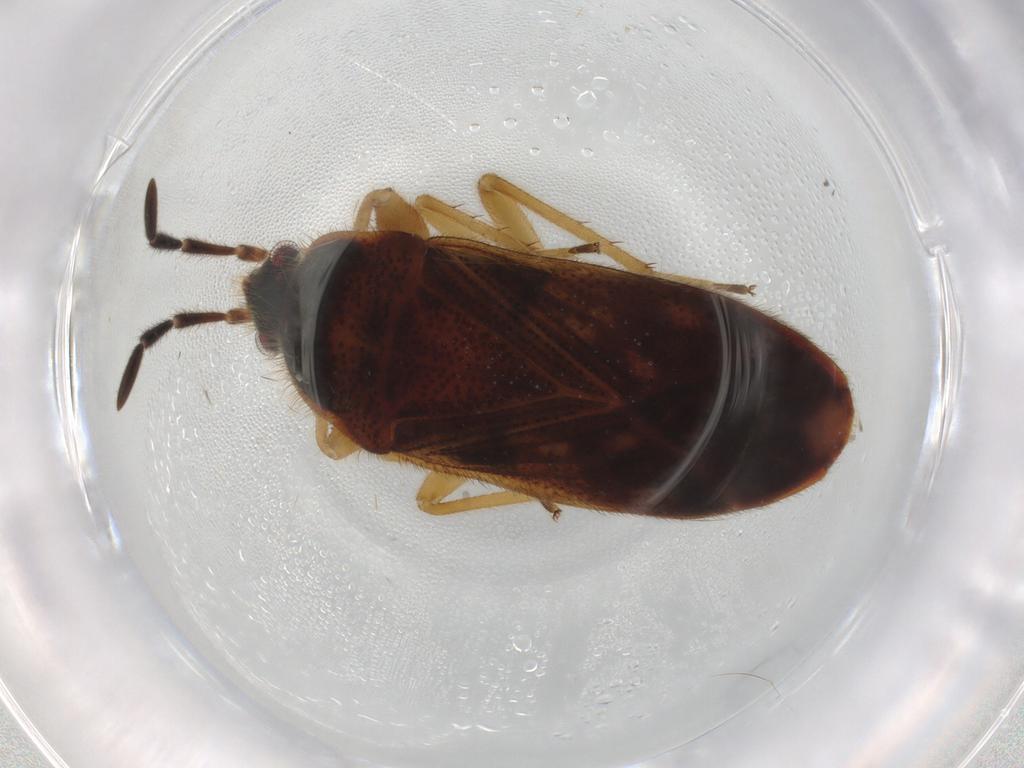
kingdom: Animalia
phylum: Arthropoda
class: Insecta
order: Hemiptera
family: Rhyparochromidae
